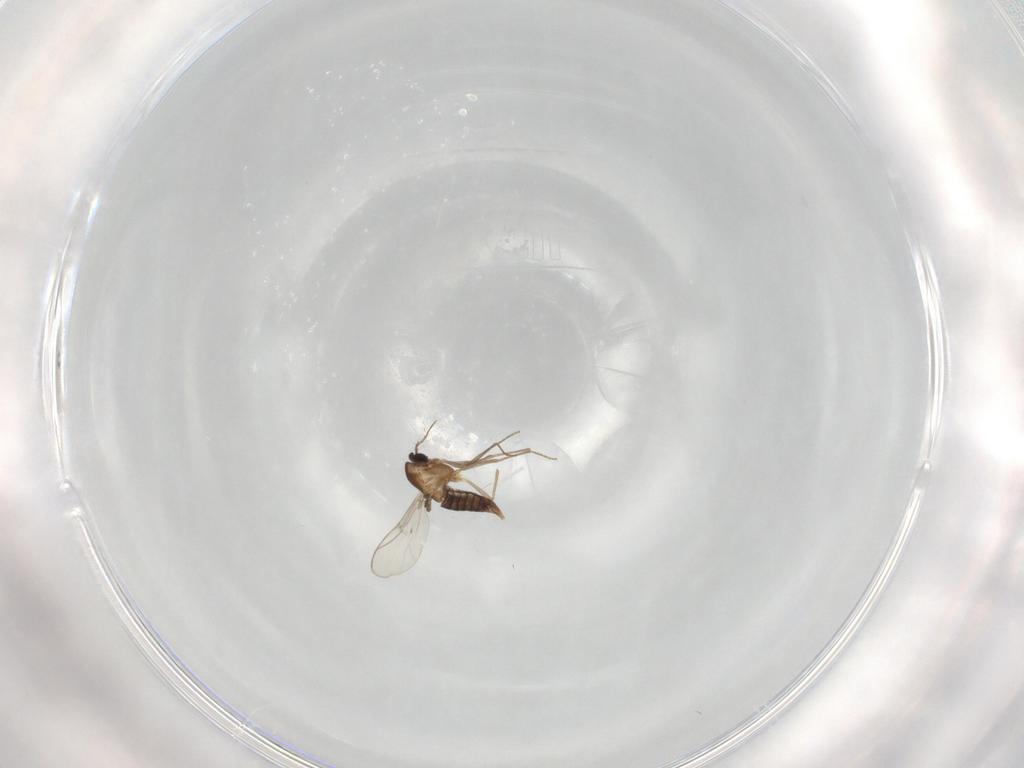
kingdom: Animalia
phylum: Arthropoda
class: Insecta
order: Diptera
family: Chironomidae
